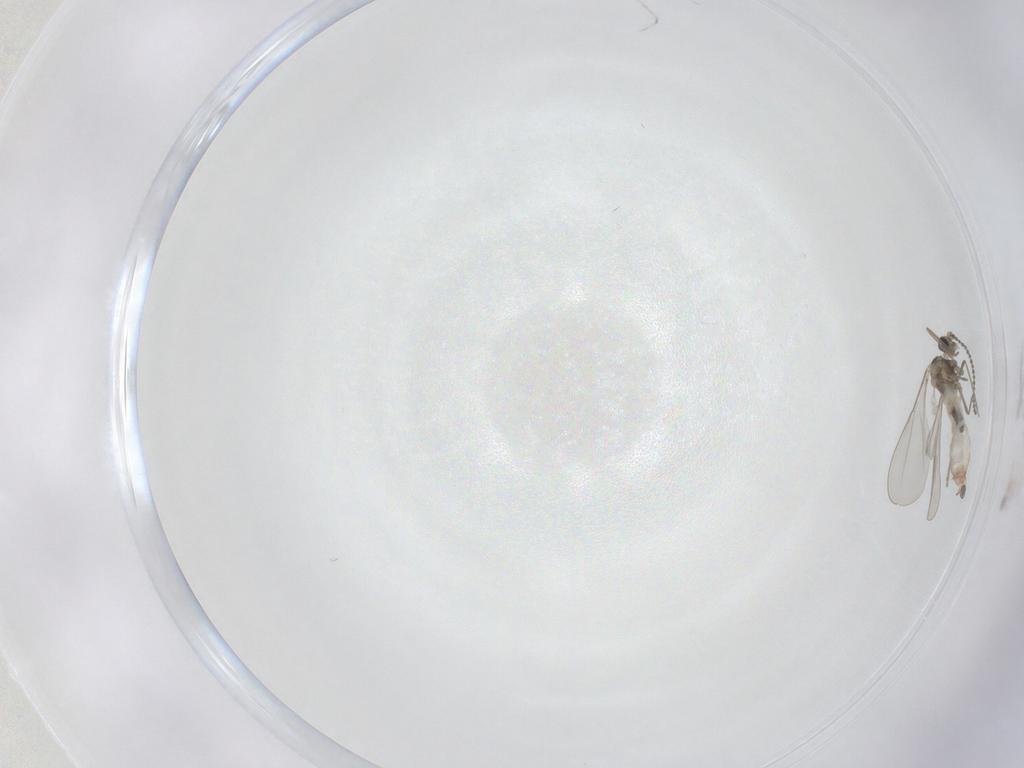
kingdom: Animalia
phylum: Arthropoda
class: Insecta
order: Diptera
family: Cecidomyiidae
